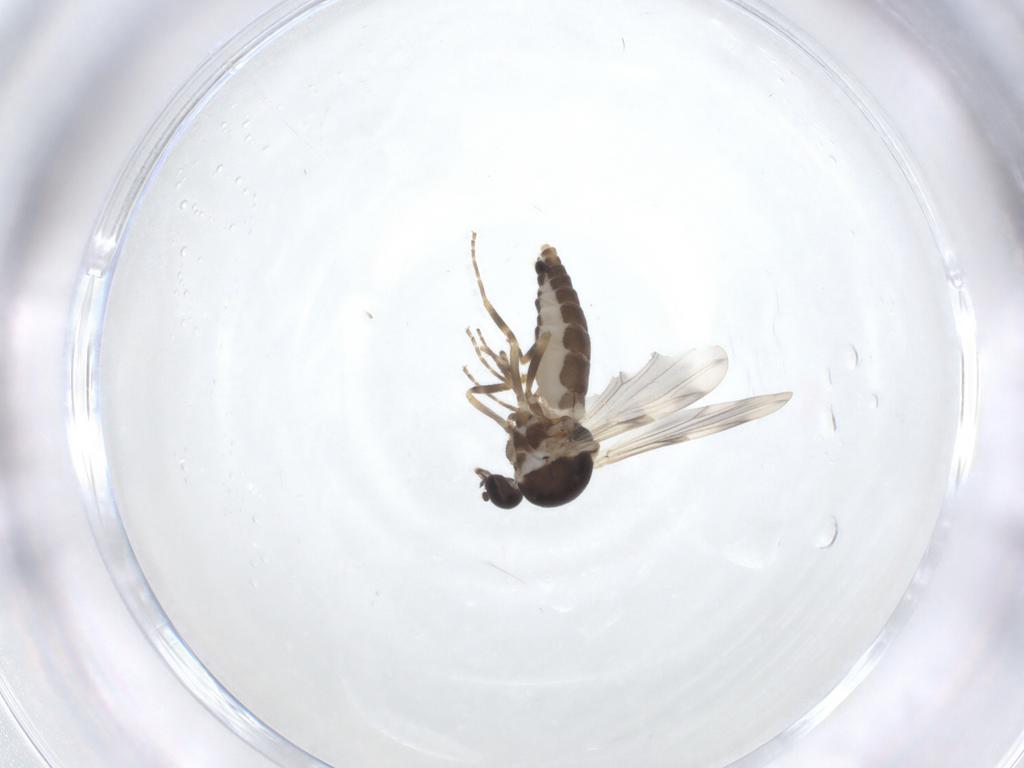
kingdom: Animalia
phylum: Arthropoda
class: Insecta
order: Diptera
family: Ceratopogonidae
